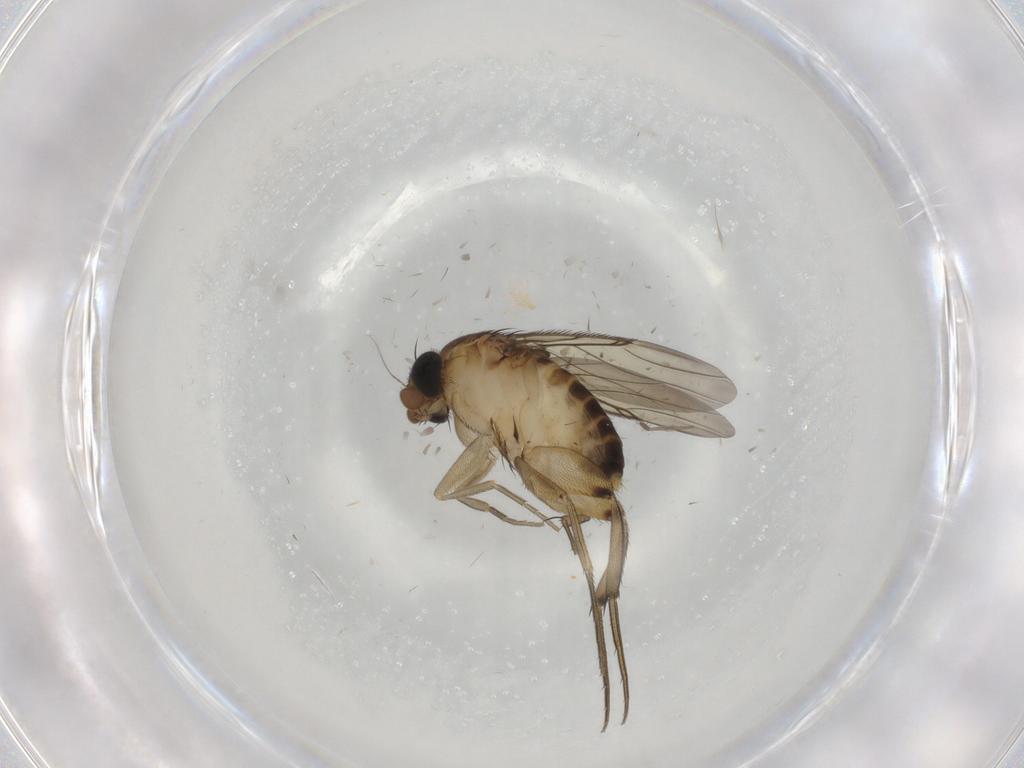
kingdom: Animalia
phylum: Arthropoda
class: Insecta
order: Diptera
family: Phoridae
